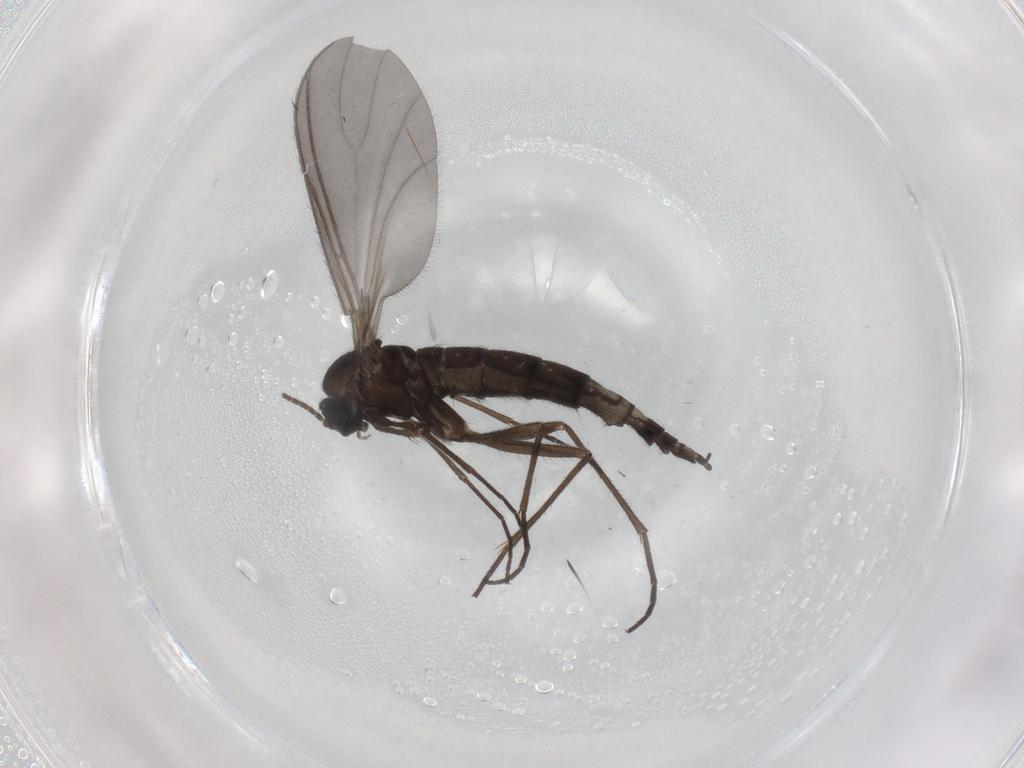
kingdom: Animalia
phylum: Arthropoda
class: Insecta
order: Diptera
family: Sciaridae
